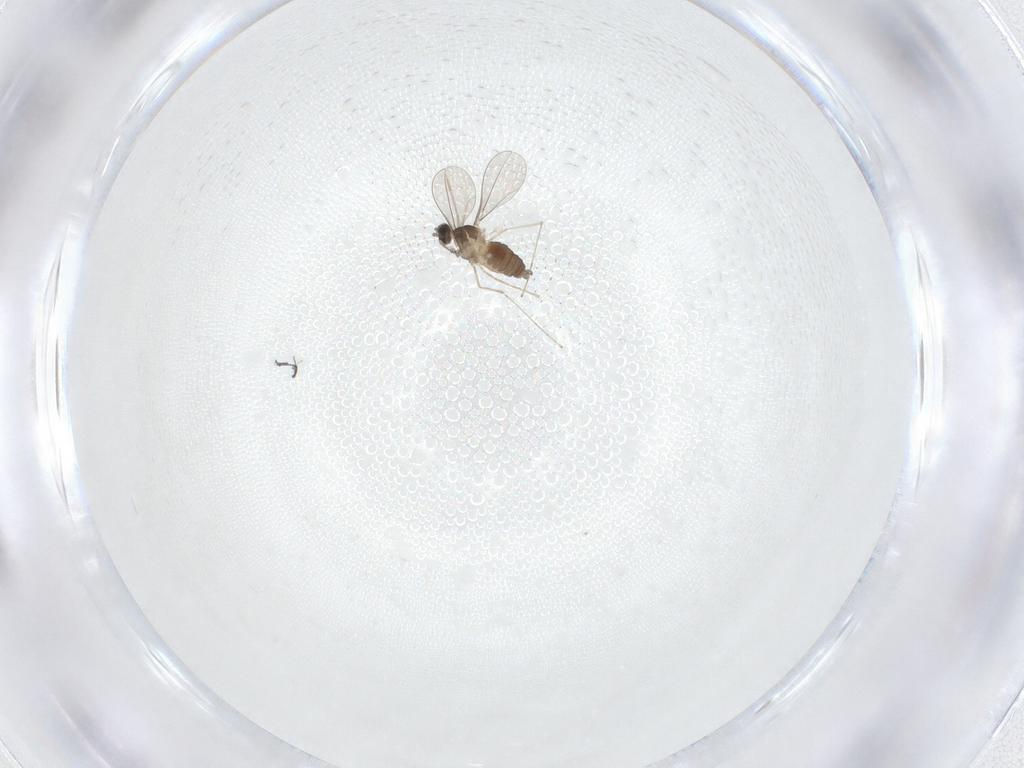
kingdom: Animalia
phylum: Arthropoda
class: Insecta
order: Diptera
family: Cecidomyiidae
